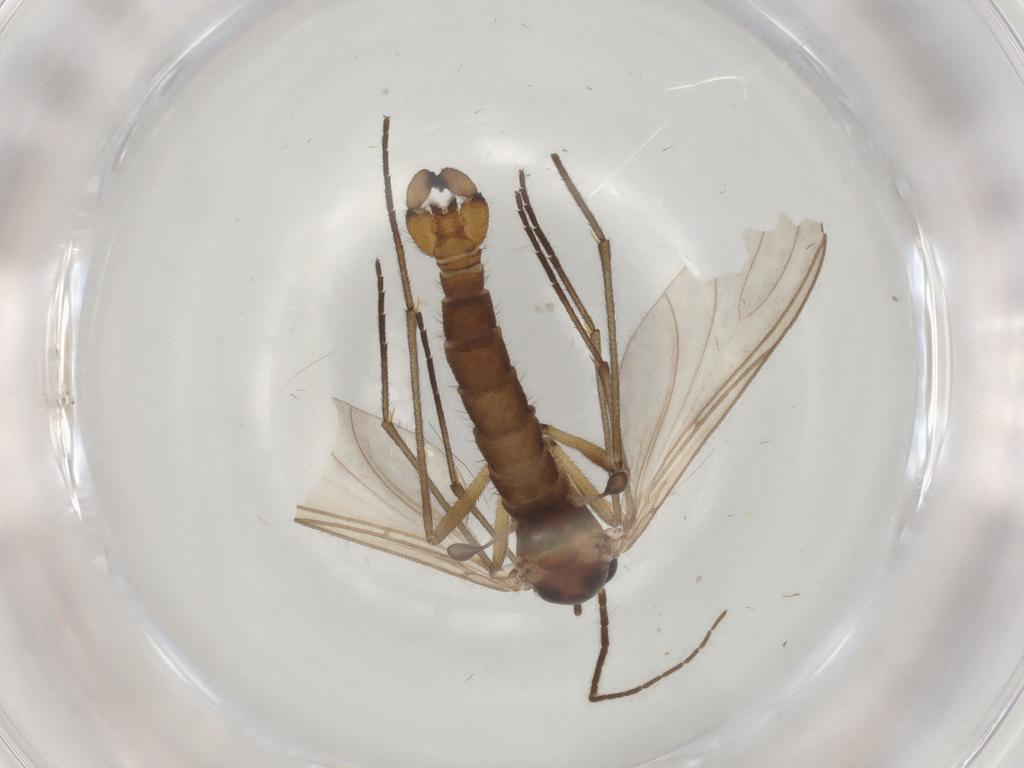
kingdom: Animalia
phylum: Arthropoda
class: Insecta
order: Diptera
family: Sciaridae
